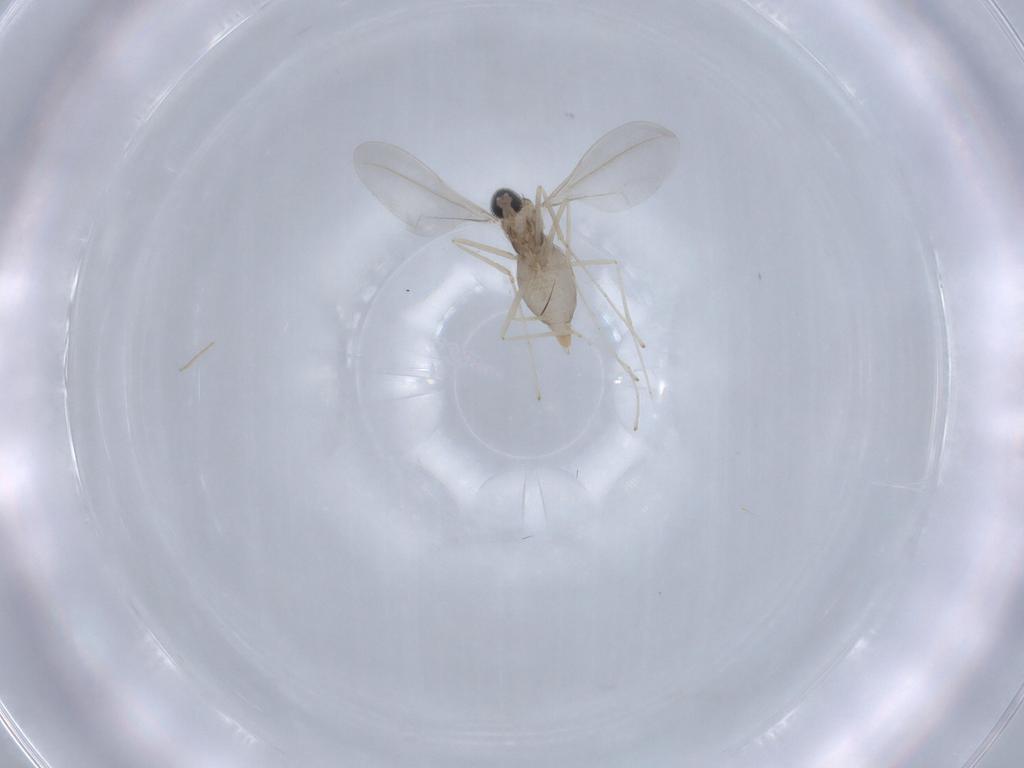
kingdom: Animalia
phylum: Arthropoda
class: Insecta
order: Diptera
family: Cecidomyiidae
